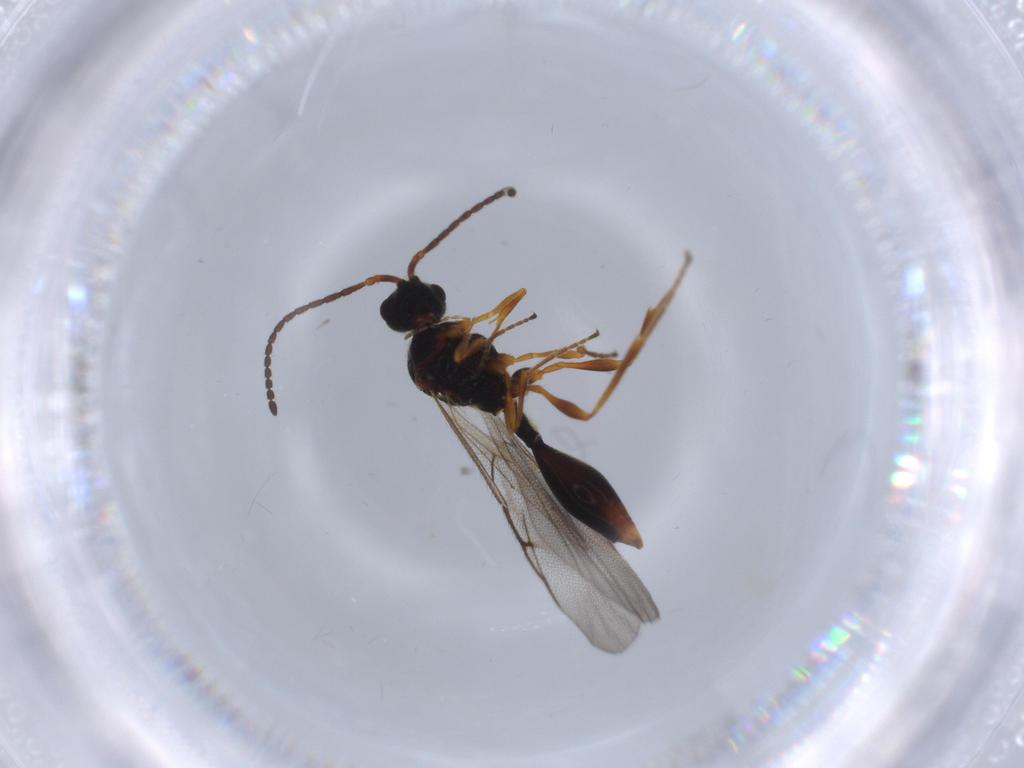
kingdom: Animalia
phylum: Arthropoda
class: Insecta
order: Hymenoptera
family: Diapriidae
